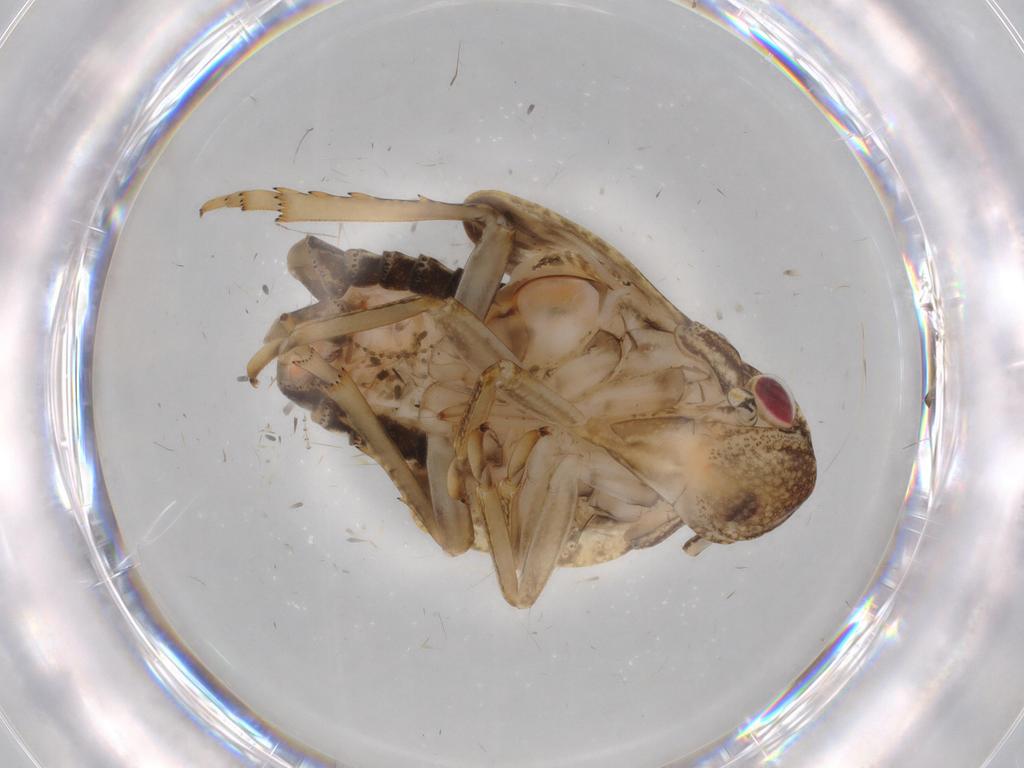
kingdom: Animalia
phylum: Arthropoda
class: Insecta
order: Hemiptera
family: Flatidae
